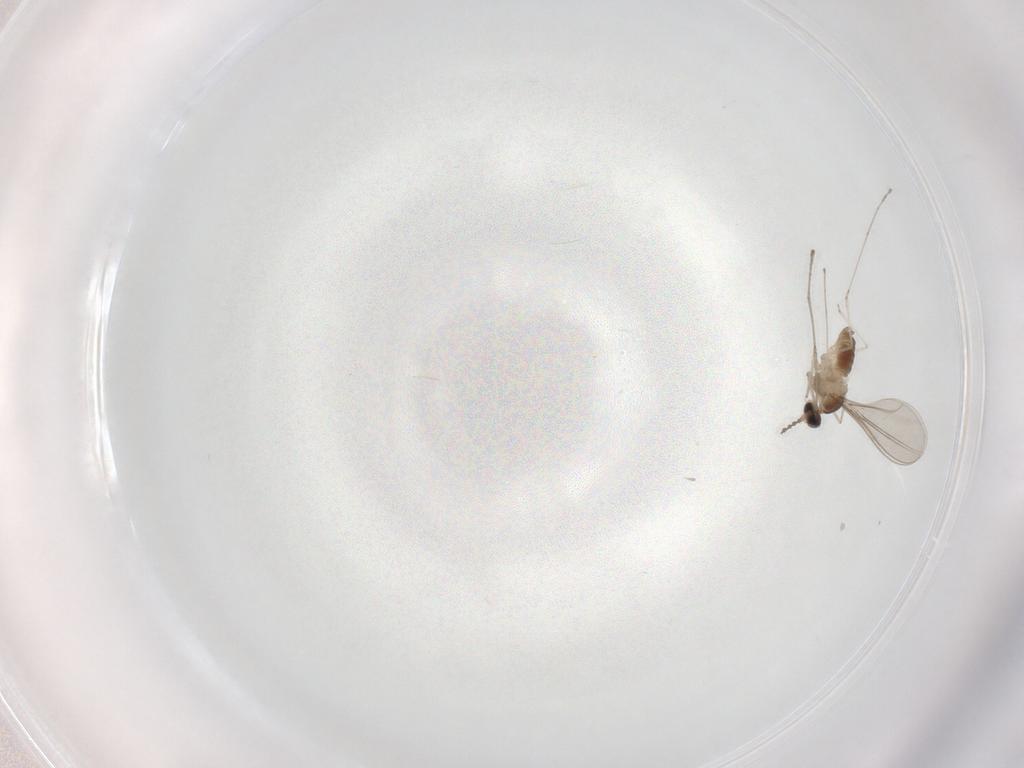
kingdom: Animalia
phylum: Arthropoda
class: Insecta
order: Diptera
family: Cecidomyiidae
